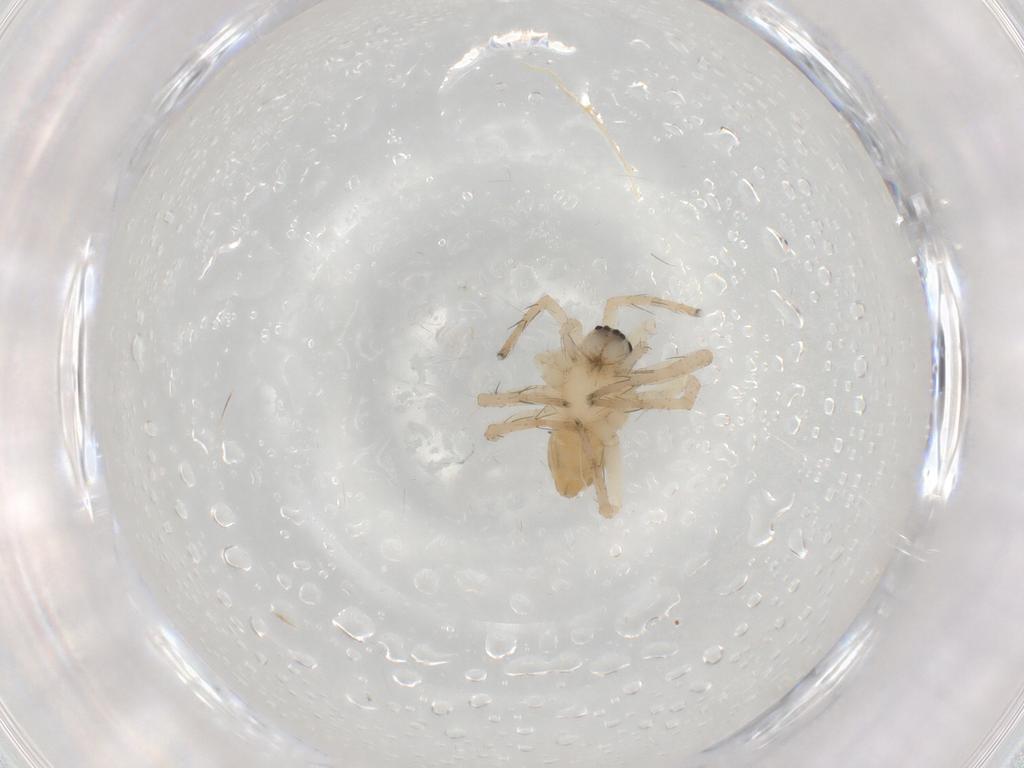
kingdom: Animalia
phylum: Arthropoda
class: Arachnida
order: Araneae
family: Pisauridae
